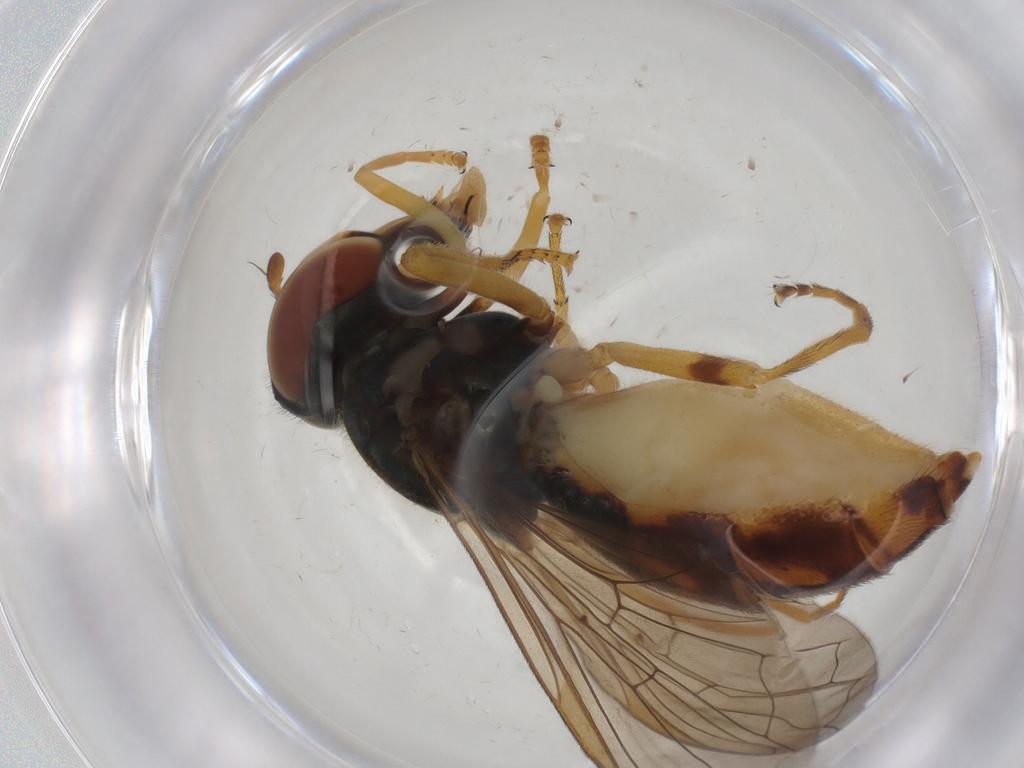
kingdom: Animalia
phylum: Arthropoda
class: Insecta
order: Diptera
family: Syrphidae
